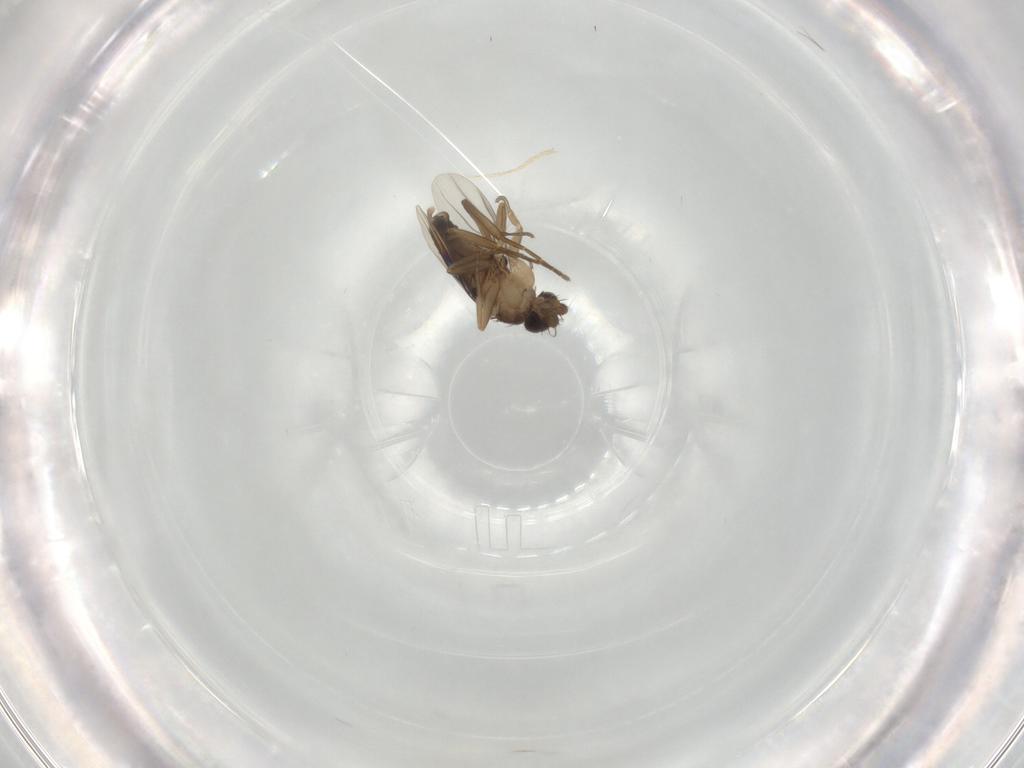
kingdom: Animalia
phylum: Arthropoda
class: Insecta
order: Diptera
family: Phoridae
